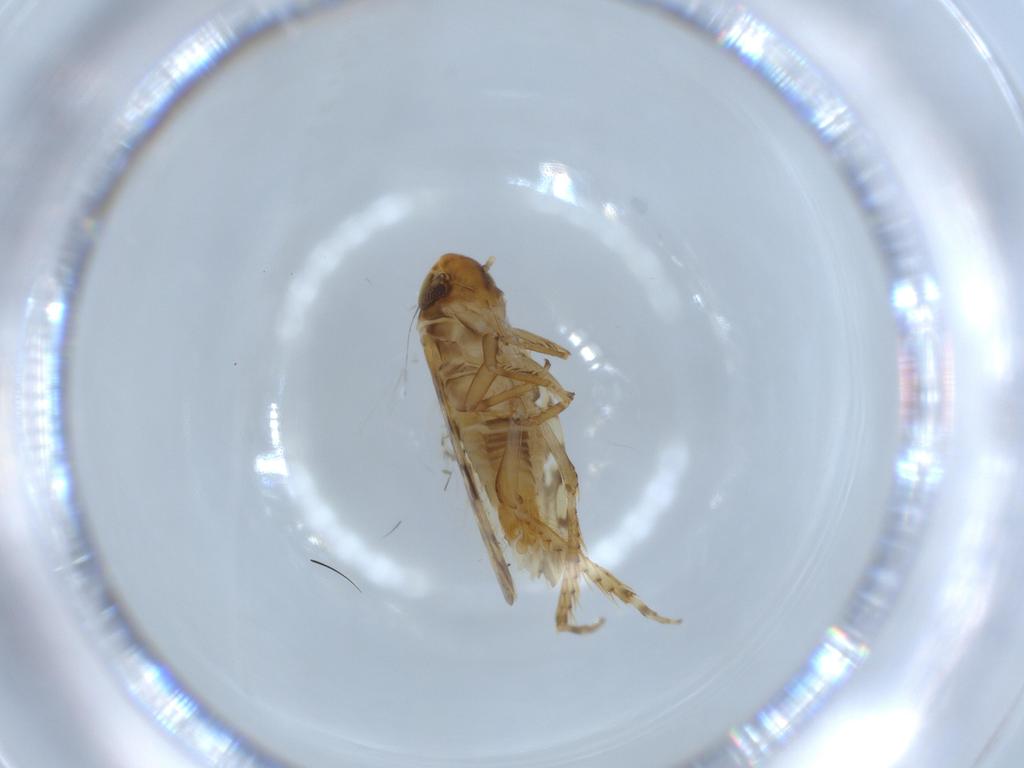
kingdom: Animalia
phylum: Arthropoda
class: Insecta
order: Hemiptera
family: Cicadellidae
